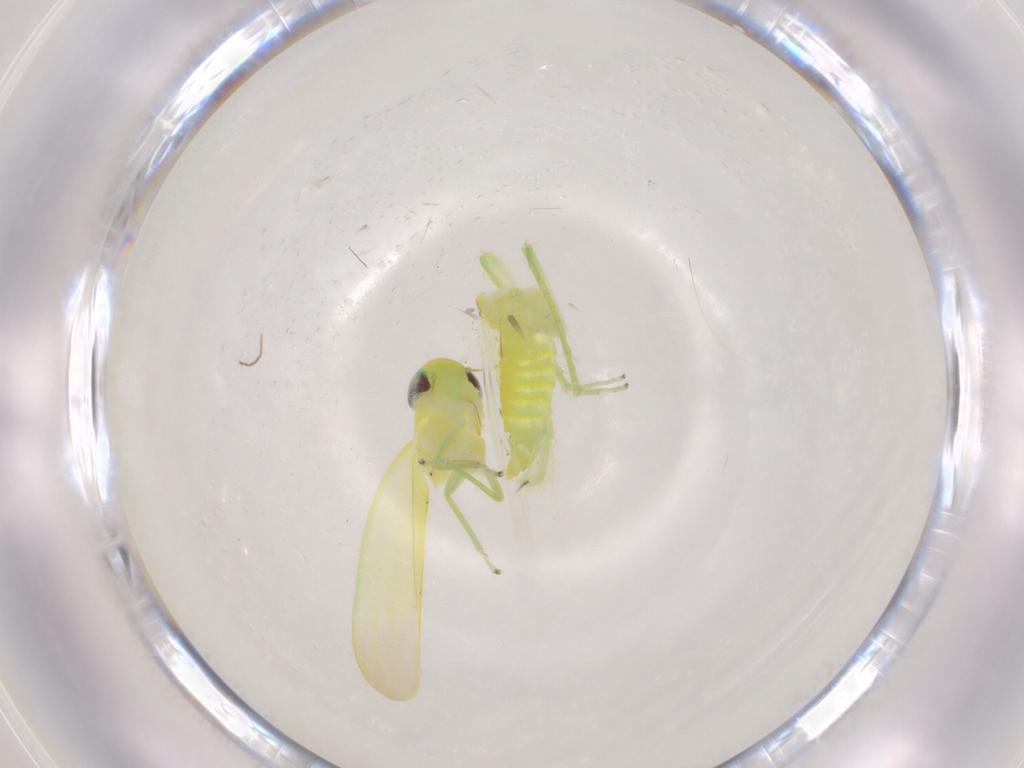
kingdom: Animalia
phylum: Arthropoda
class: Insecta
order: Hemiptera
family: Cicadellidae
